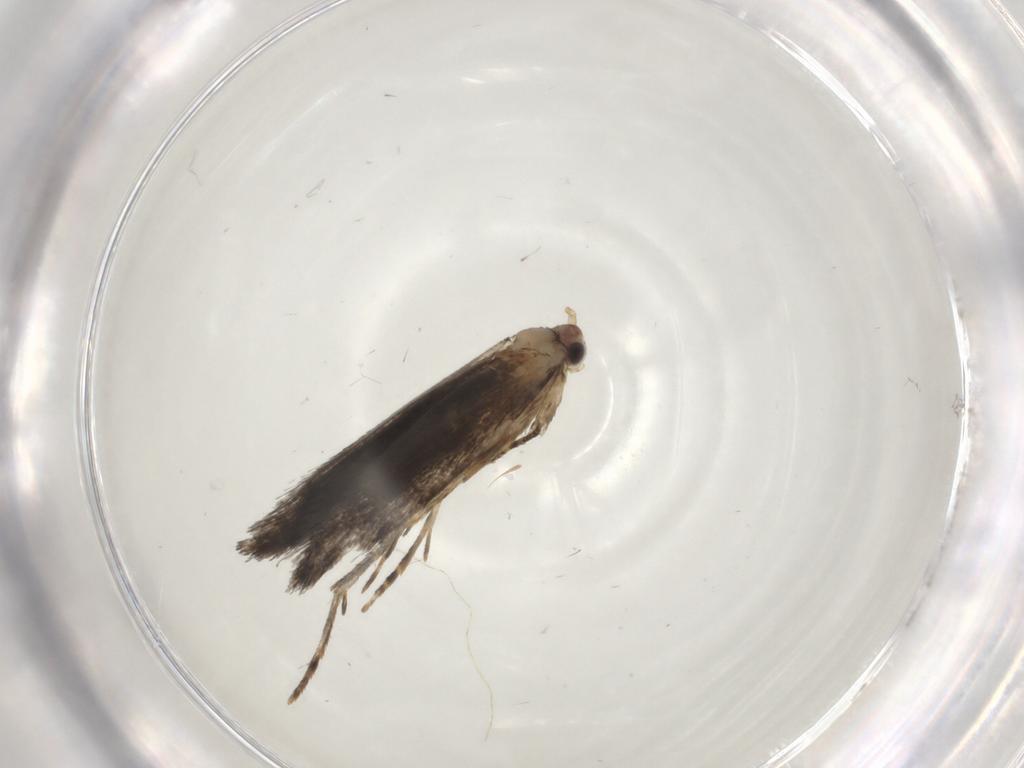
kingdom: Animalia
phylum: Arthropoda
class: Insecta
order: Lepidoptera
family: Tineidae
